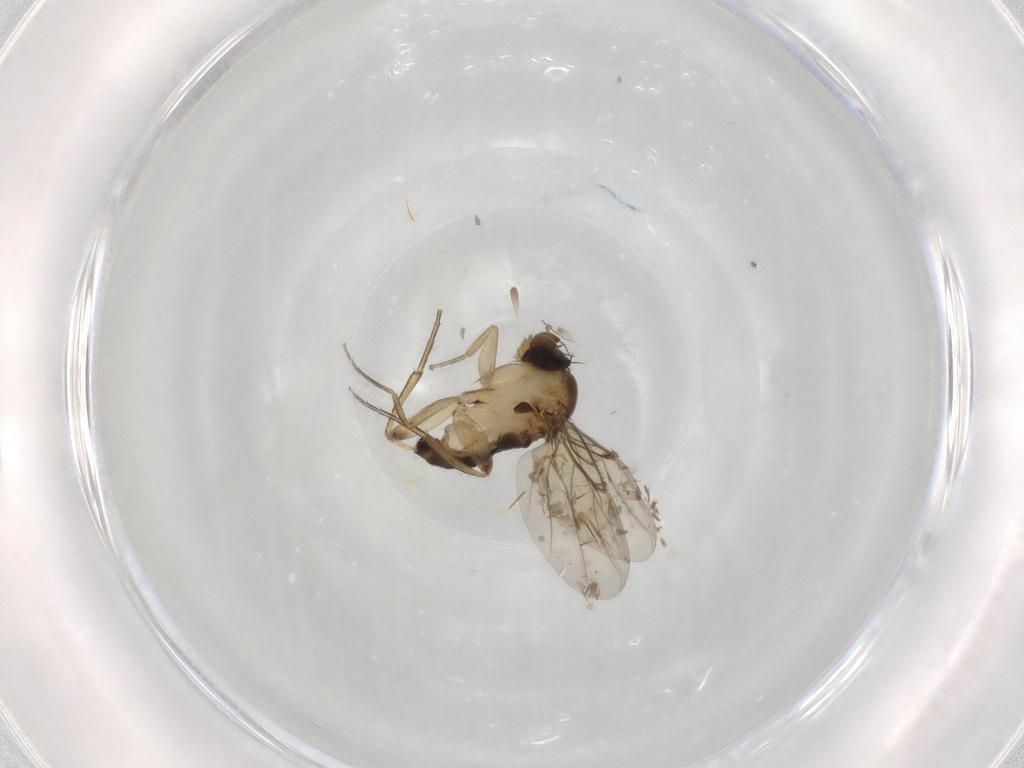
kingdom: Animalia
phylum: Arthropoda
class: Insecta
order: Diptera
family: Phoridae
